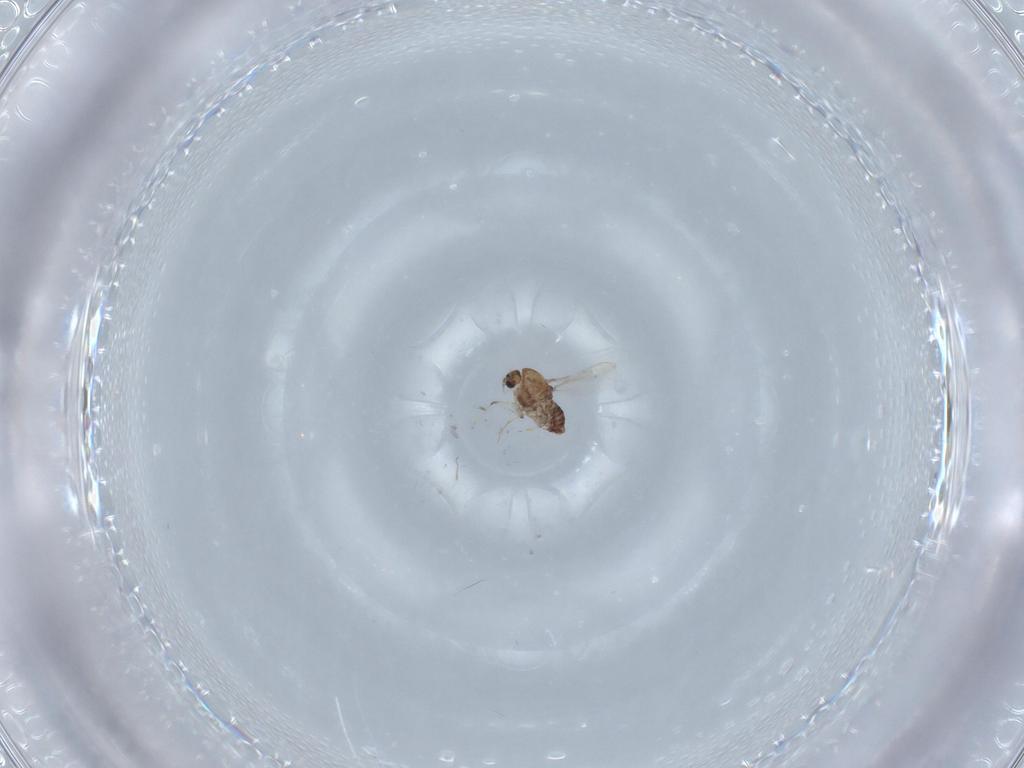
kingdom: Animalia
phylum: Arthropoda
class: Insecta
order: Diptera
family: Chironomidae
